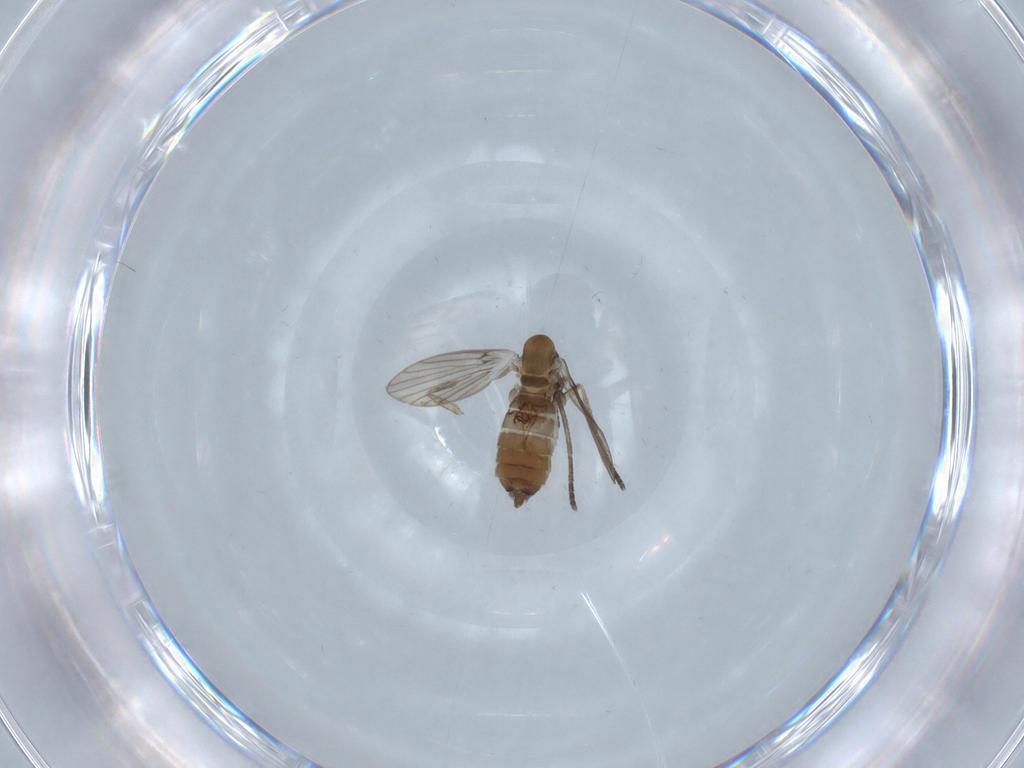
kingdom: Animalia
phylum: Arthropoda
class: Insecta
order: Diptera
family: Psychodidae
